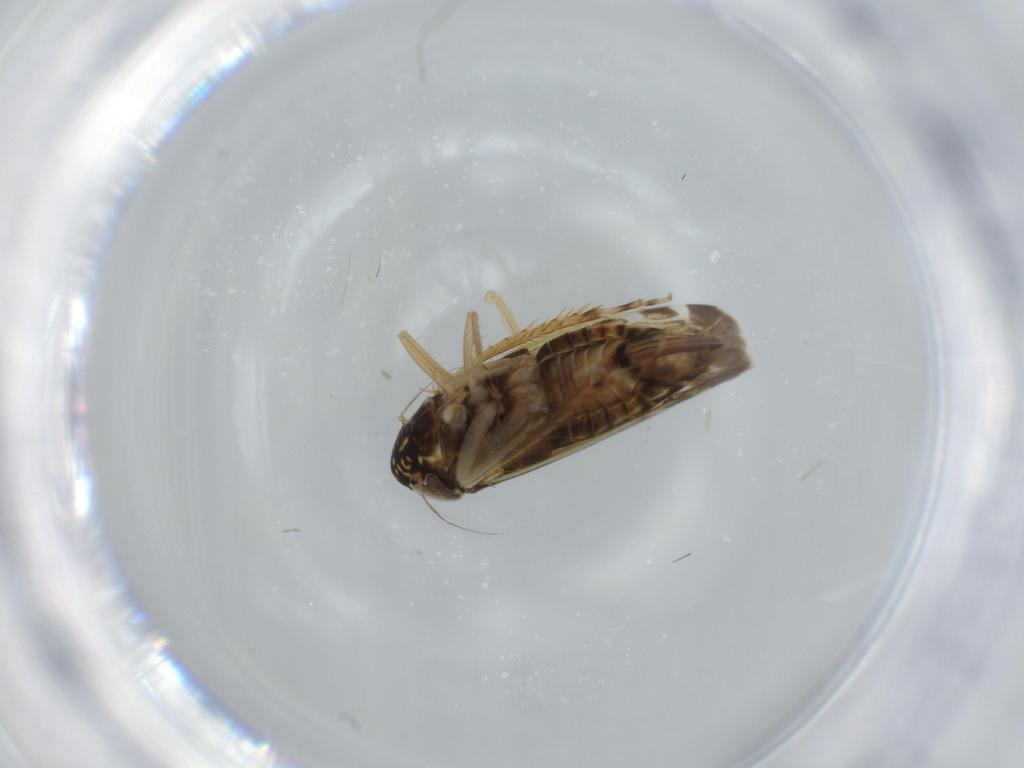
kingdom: Animalia
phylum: Arthropoda
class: Insecta
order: Hemiptera
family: Cicadellidae
